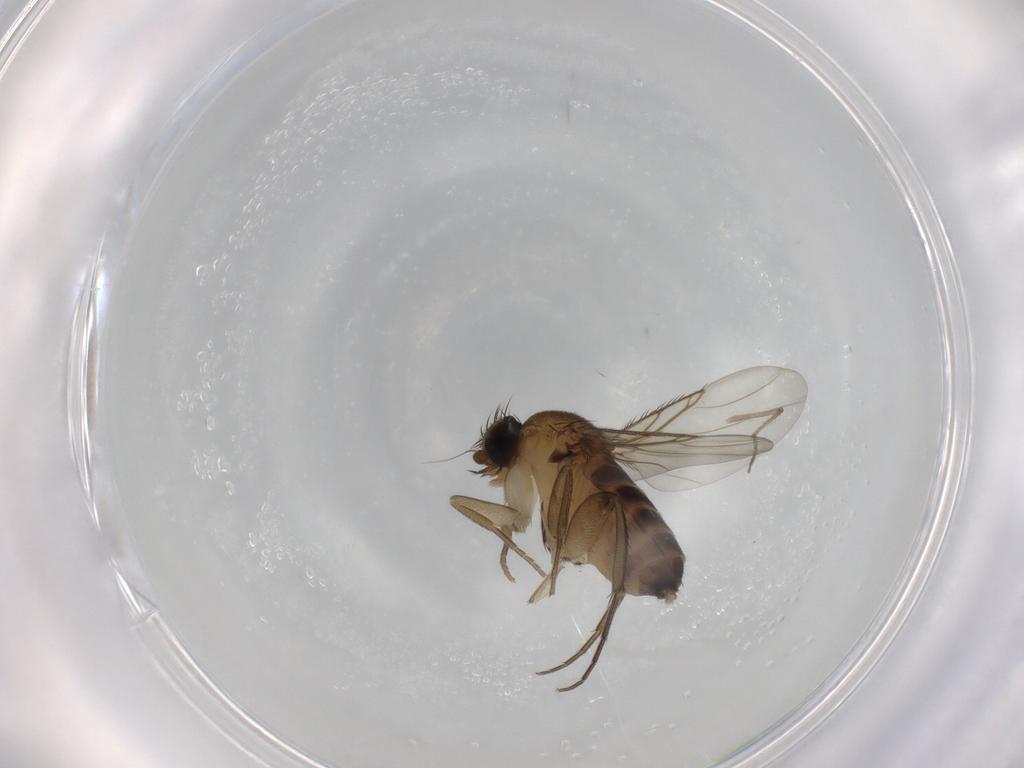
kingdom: Animalia
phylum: Arthropoda
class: Insecta
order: Diptera
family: Phoridae
